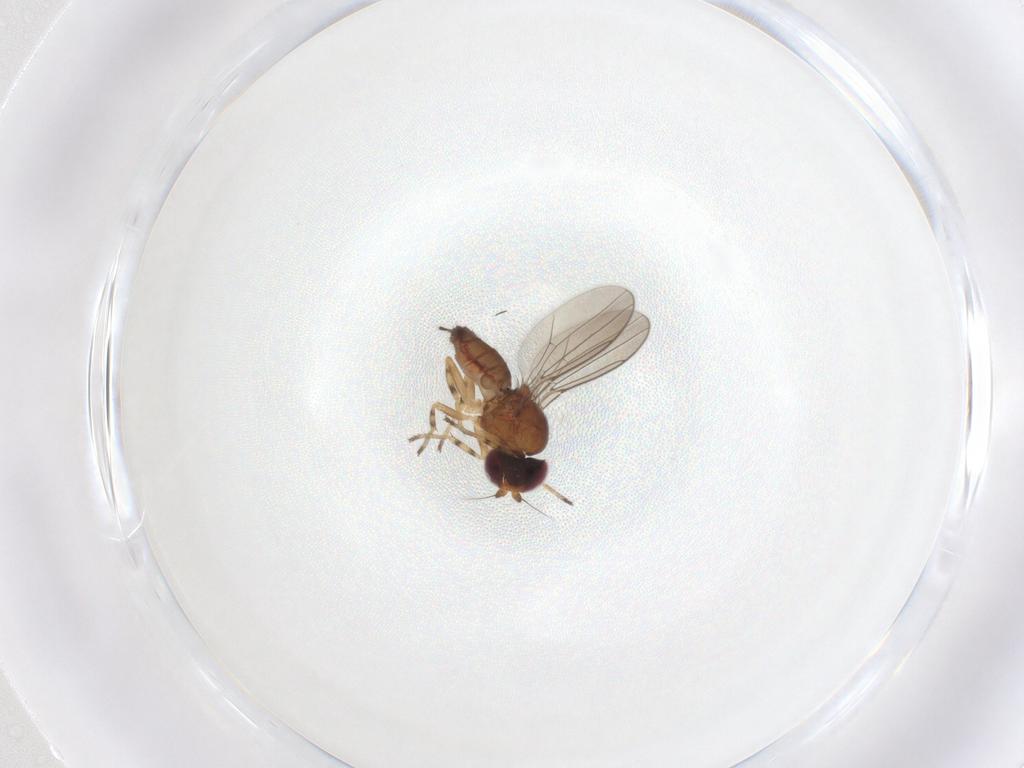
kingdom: Animalia
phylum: Arthropoda
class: Insecta
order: Diptera
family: Chloropidae
